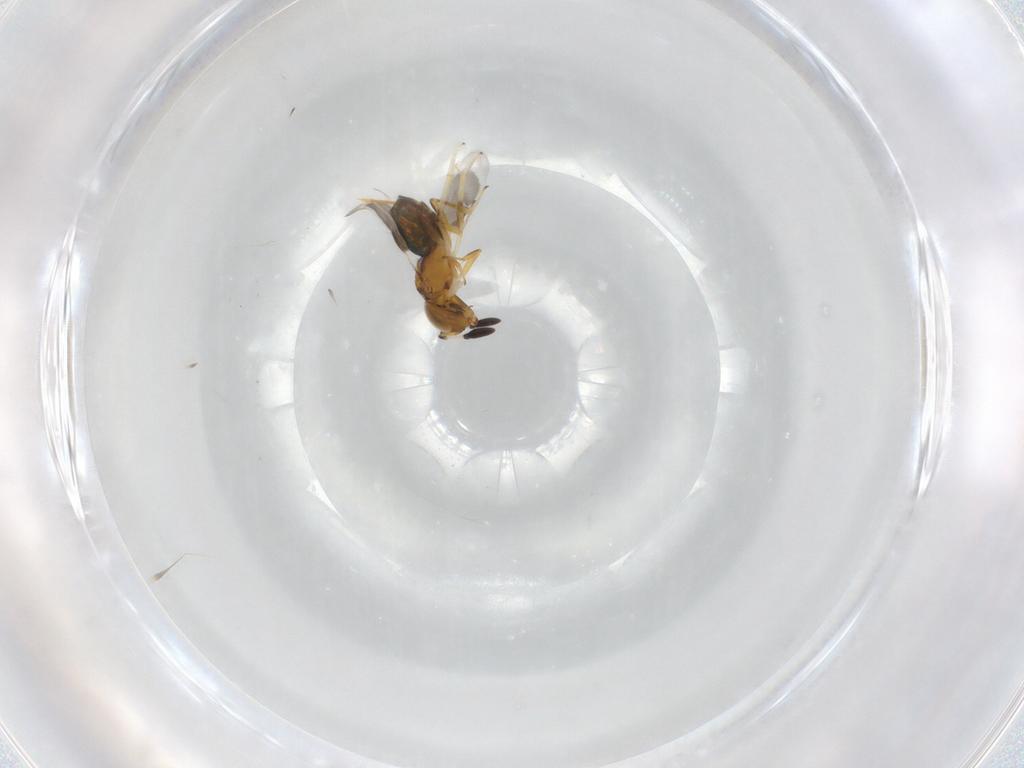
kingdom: Animalia
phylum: Arthropoda
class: Insecta
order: Hymenoptera
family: Ichneumonidae
